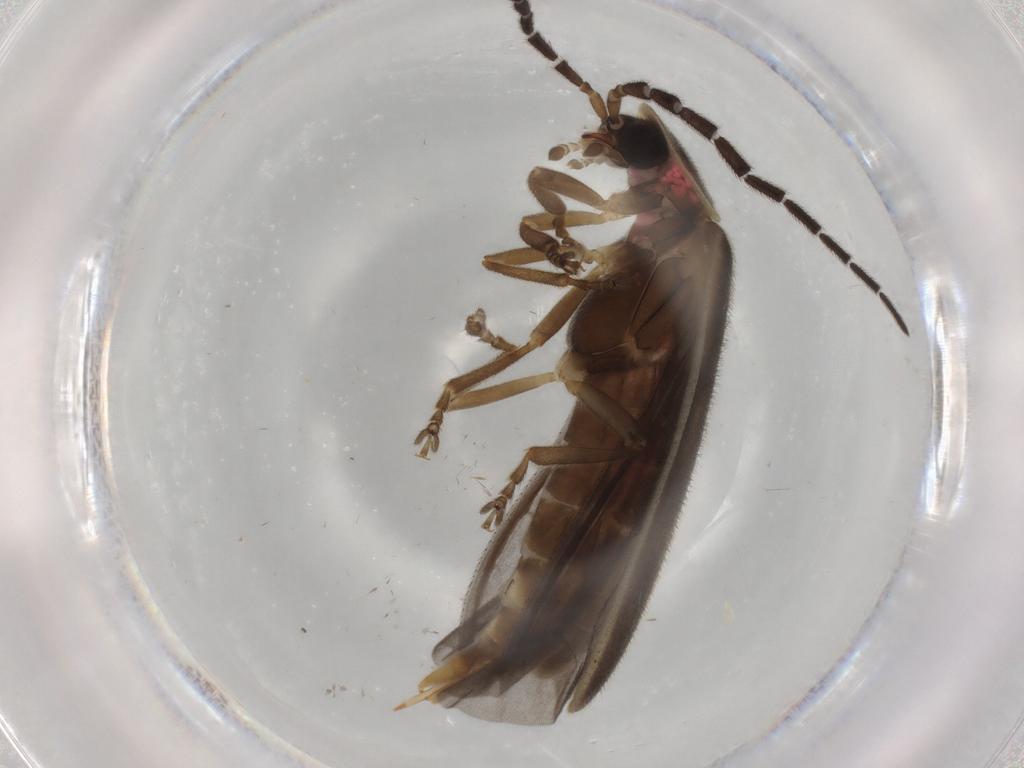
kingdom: Animalia
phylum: Arthropoda
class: Insecta
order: Coleoptera
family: Lampyridae
